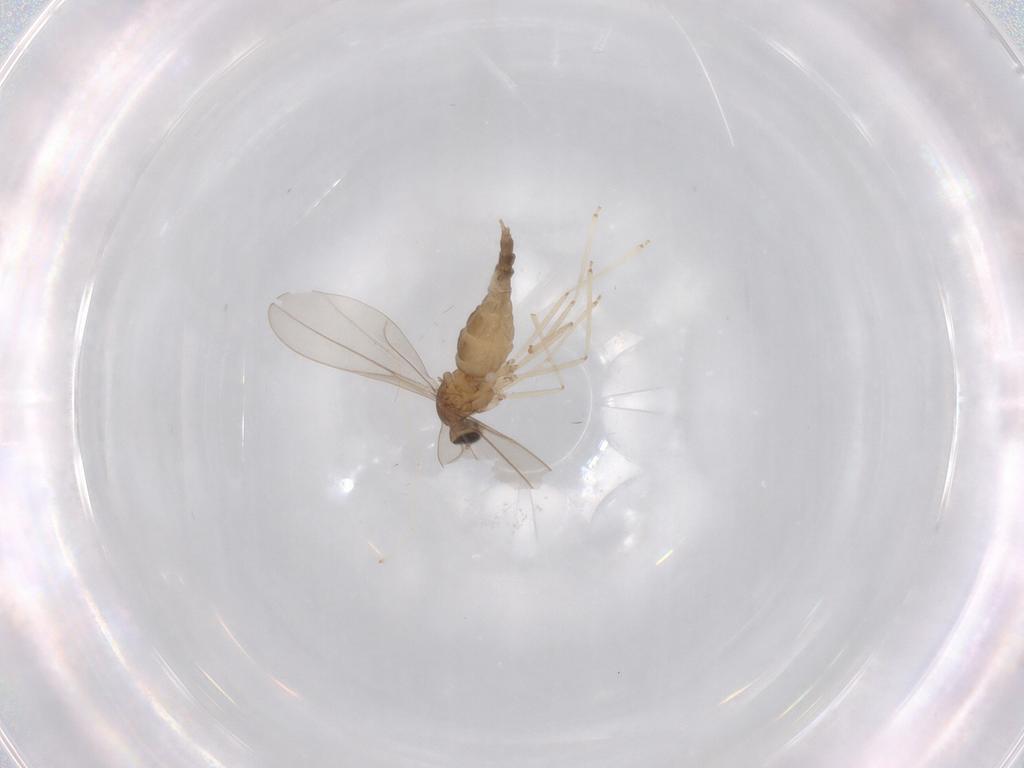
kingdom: Animalia
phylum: Arthropoda
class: Insecta
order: Diptera
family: Cecidomyiidae
